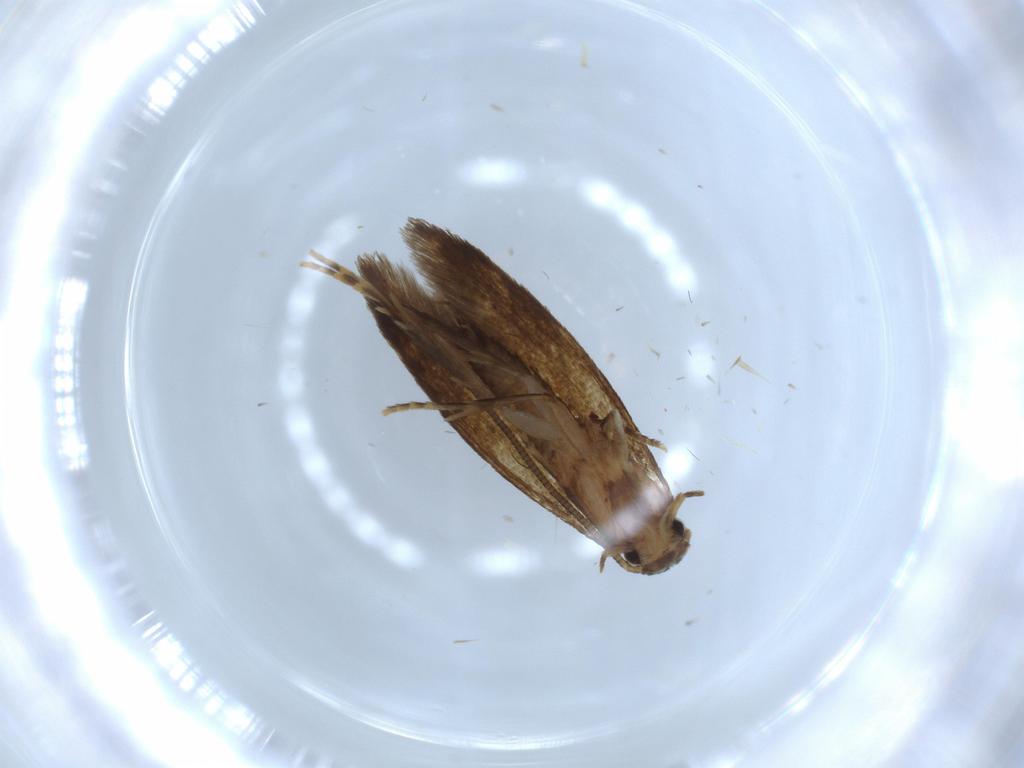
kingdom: Animalia
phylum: Arthropoda
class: Insecta
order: Lepidoptera
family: Tineidae
